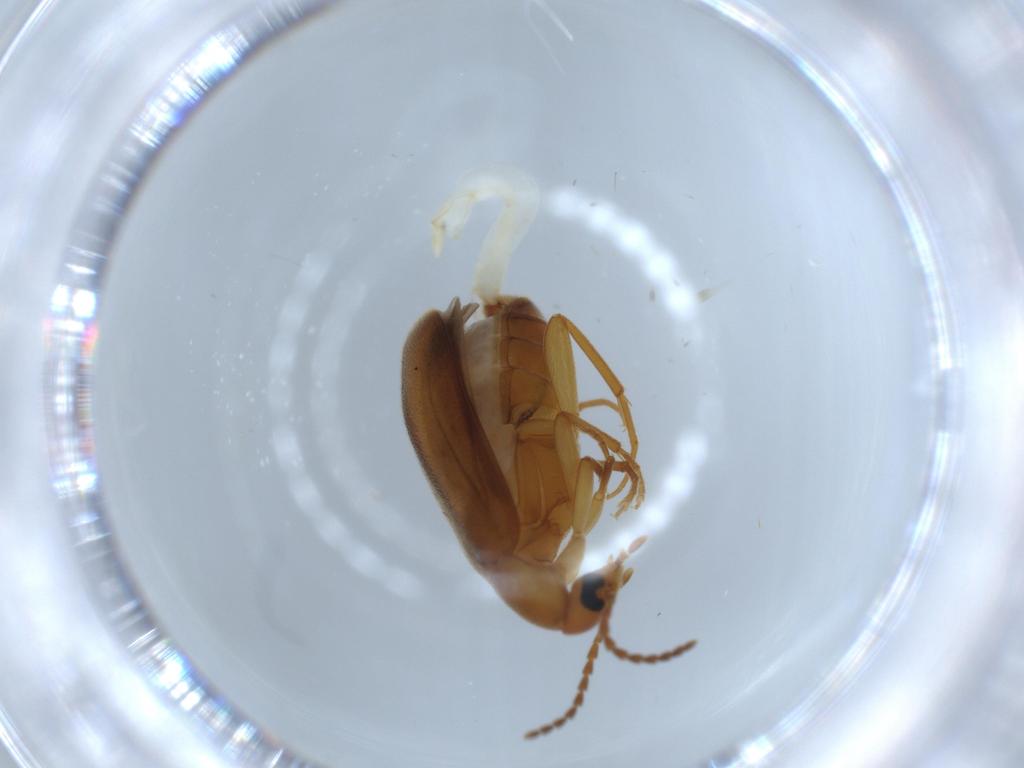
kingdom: Animalia
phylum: Arthropoda
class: Insecta
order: Coleoptera
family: Scraptiidae
